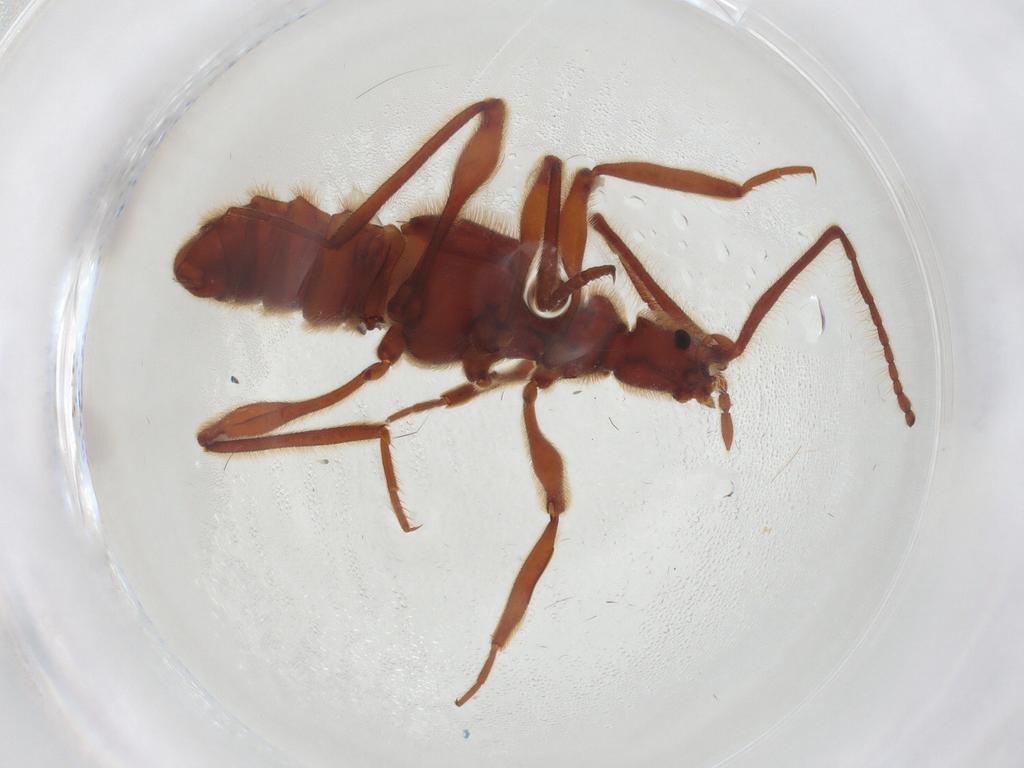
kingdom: Animalia
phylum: Arthropoda
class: Insecta
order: Coleoptera
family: Staphylinidae
